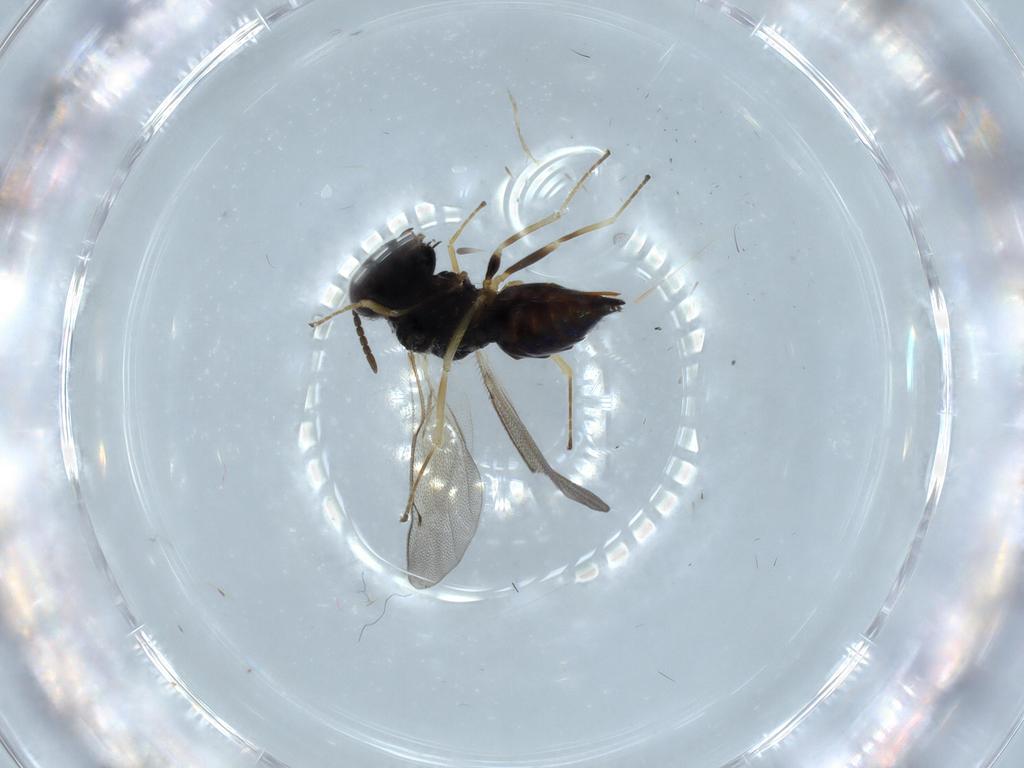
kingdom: Animalia
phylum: Arthropoda
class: Insecta
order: Hymenoptera
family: Pteromalidae
